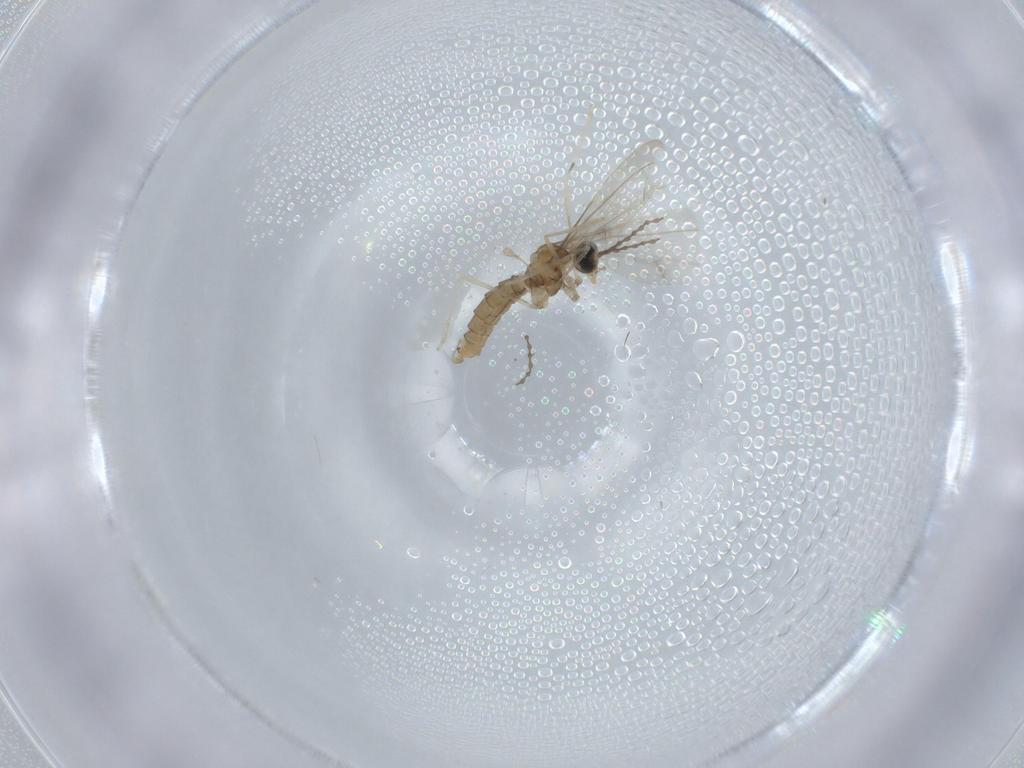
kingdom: Animalia
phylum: Arthropoda
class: Insecta
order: Diptera
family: Cecidomyiidae
